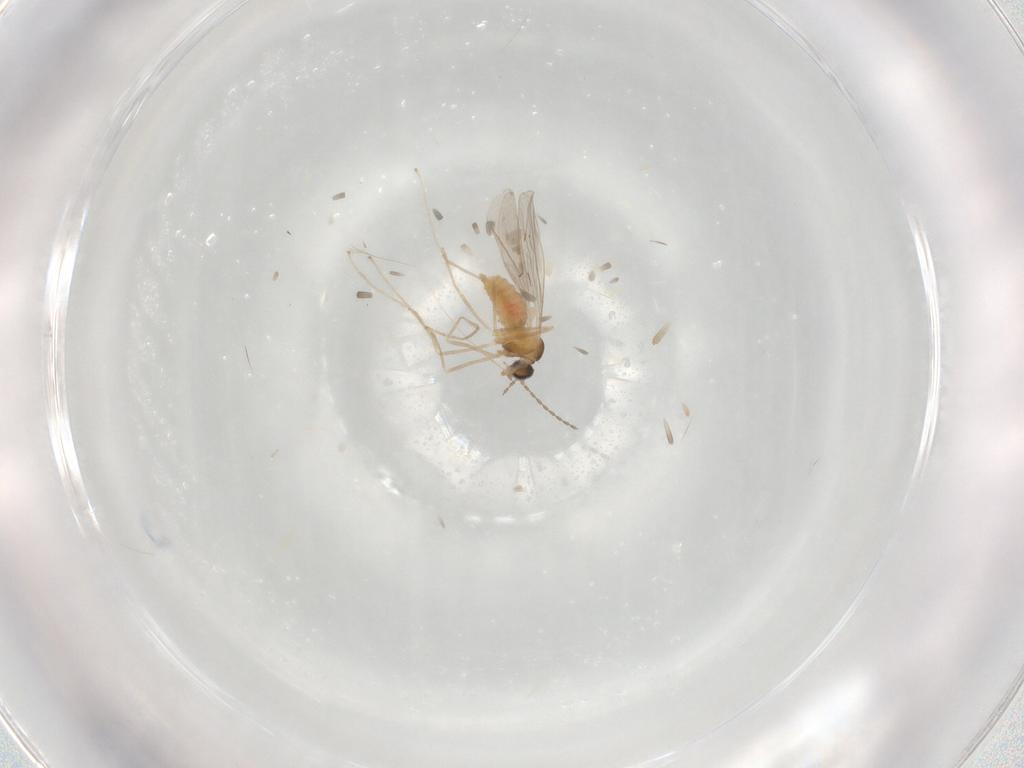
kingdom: Animalia
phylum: Arthropoda
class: Insecta
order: Diptera
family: Cecidomyiidae
